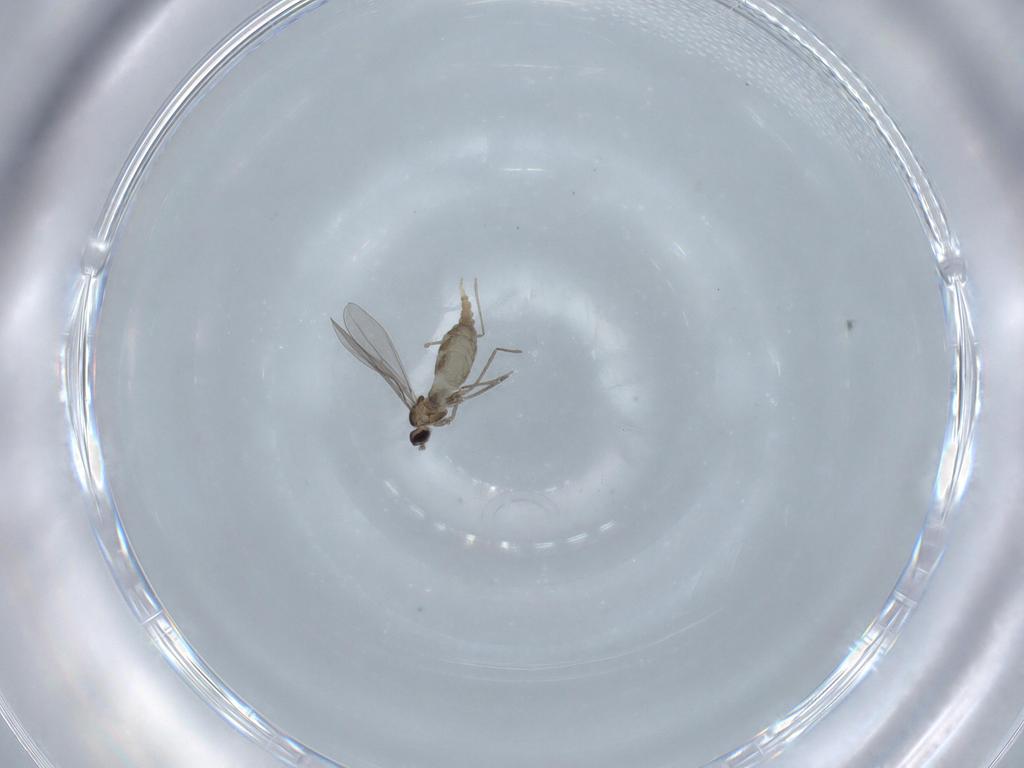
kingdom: Animalia
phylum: Arthropoda
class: Insecta
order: Diptera
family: Cecidomyiidae
